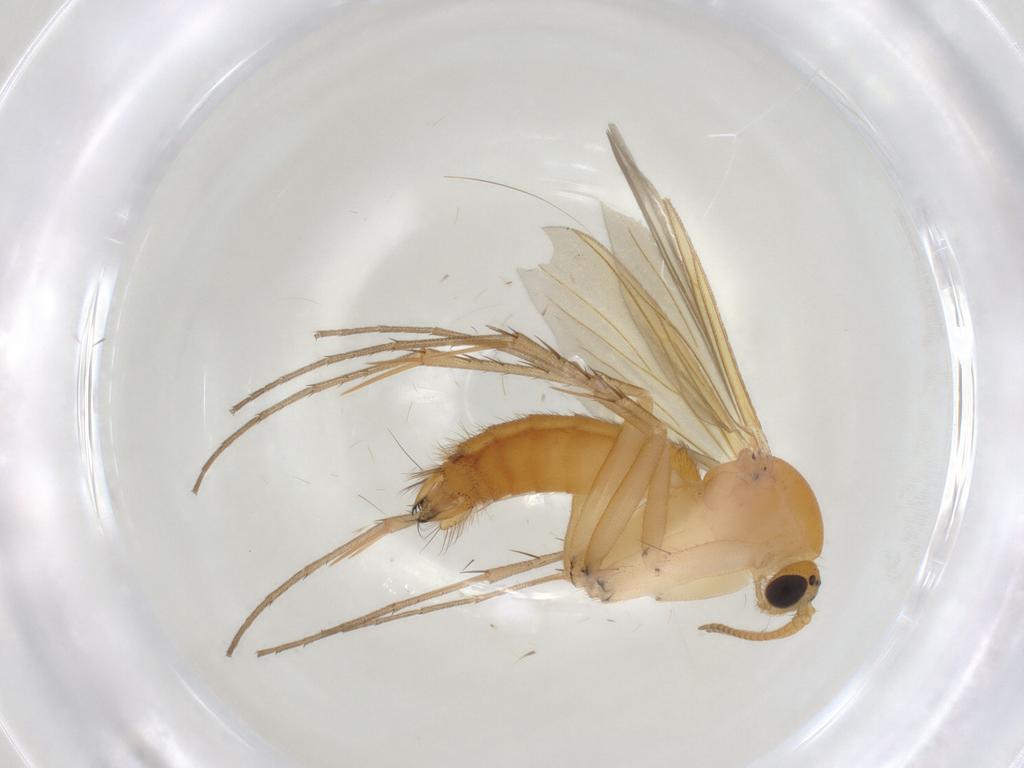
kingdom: Animalia
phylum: Arthropoda
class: Insecta
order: Diptera
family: Mycetophilidae
